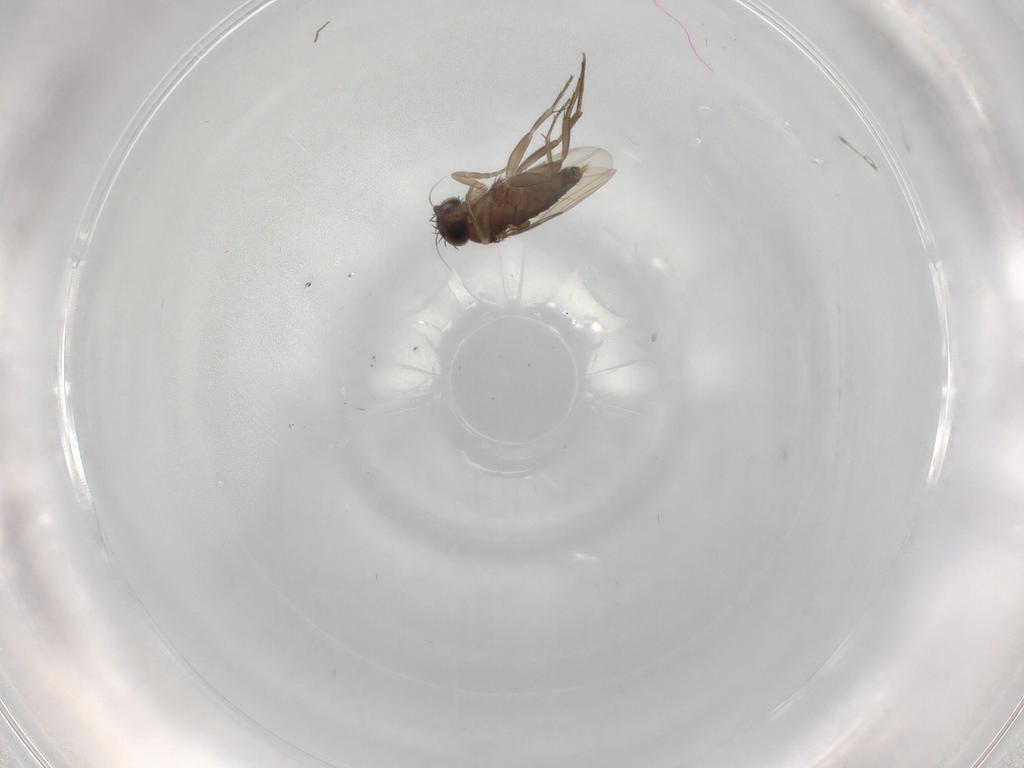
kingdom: Animalia
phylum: Arthropoda
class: Insecta
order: Diptera
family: Phoridae
